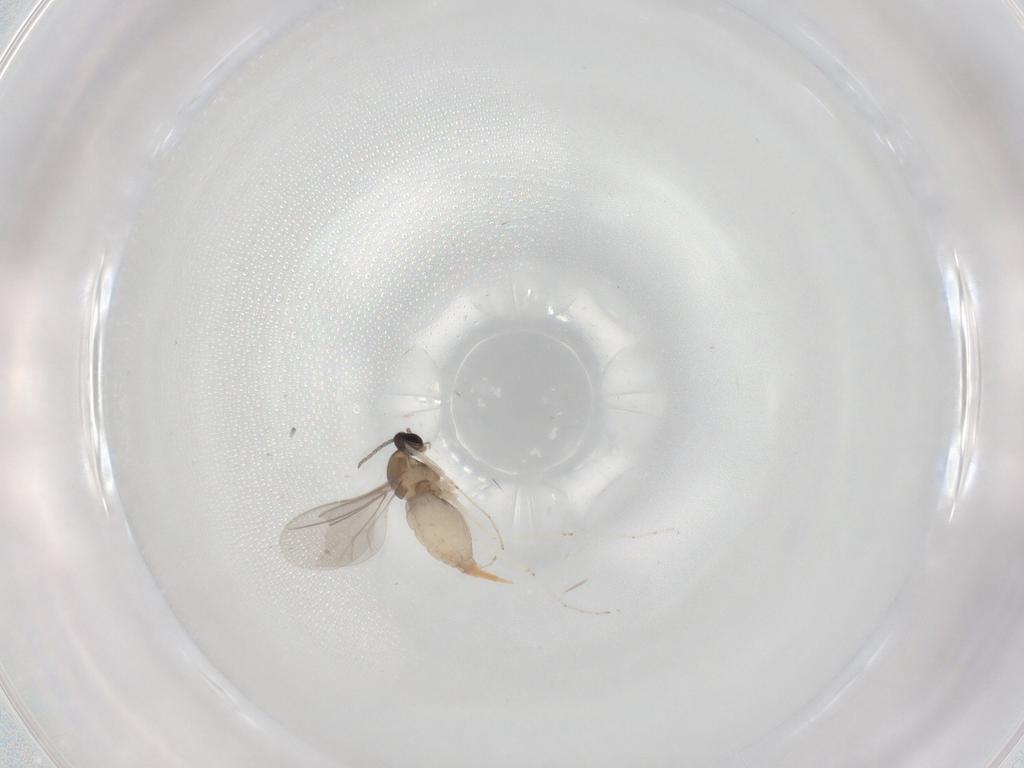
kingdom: Animalia
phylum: Arthropoda
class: Insecta
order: Diptera
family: Cecidomyiidae
